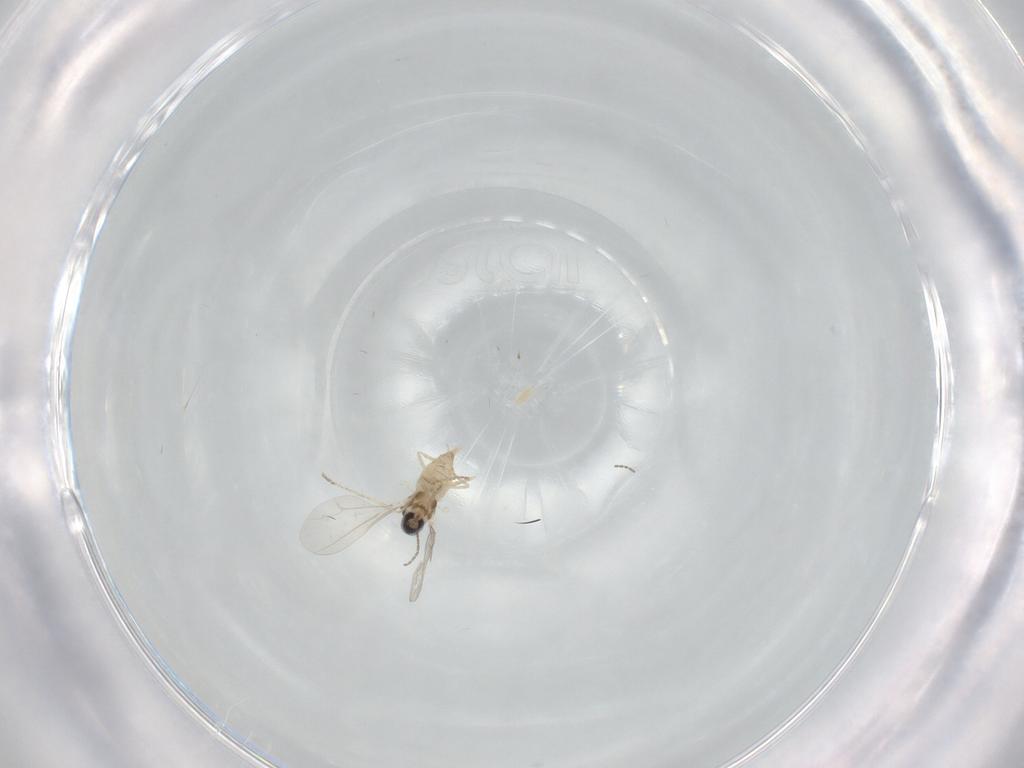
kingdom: Animalia
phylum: Arthropoda
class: Insecta
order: Diptera
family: Cecidomyiidae
